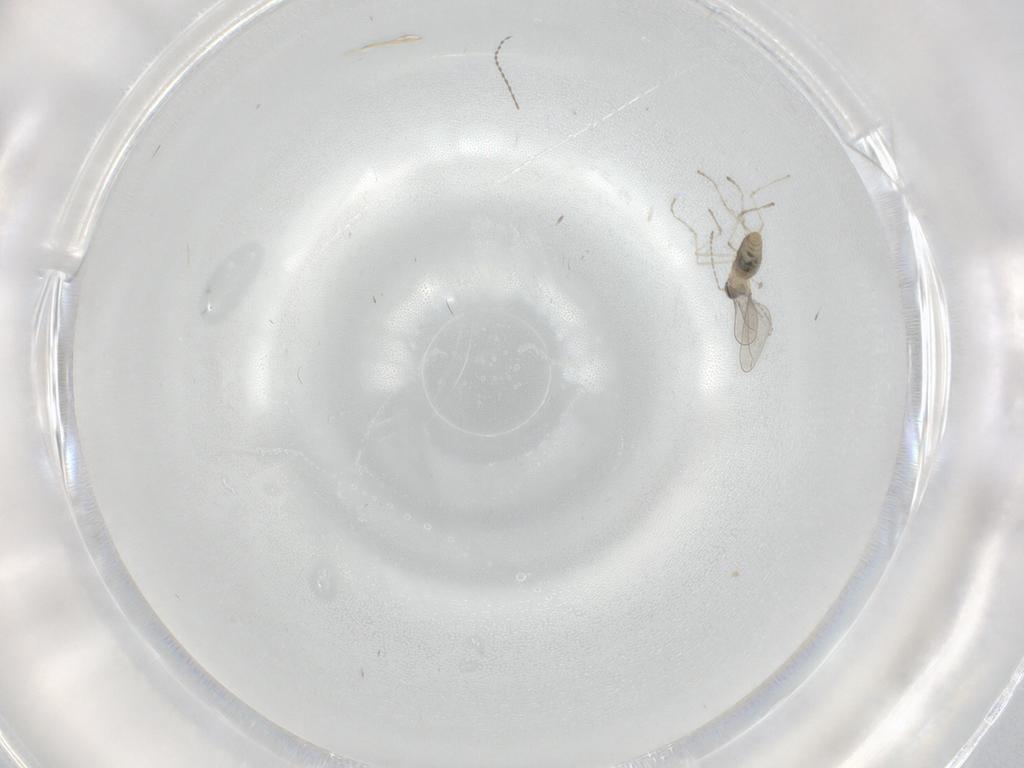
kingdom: Animalia
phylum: Arthropoda
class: Insecta
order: Diptera
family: Cecidomyiidae
